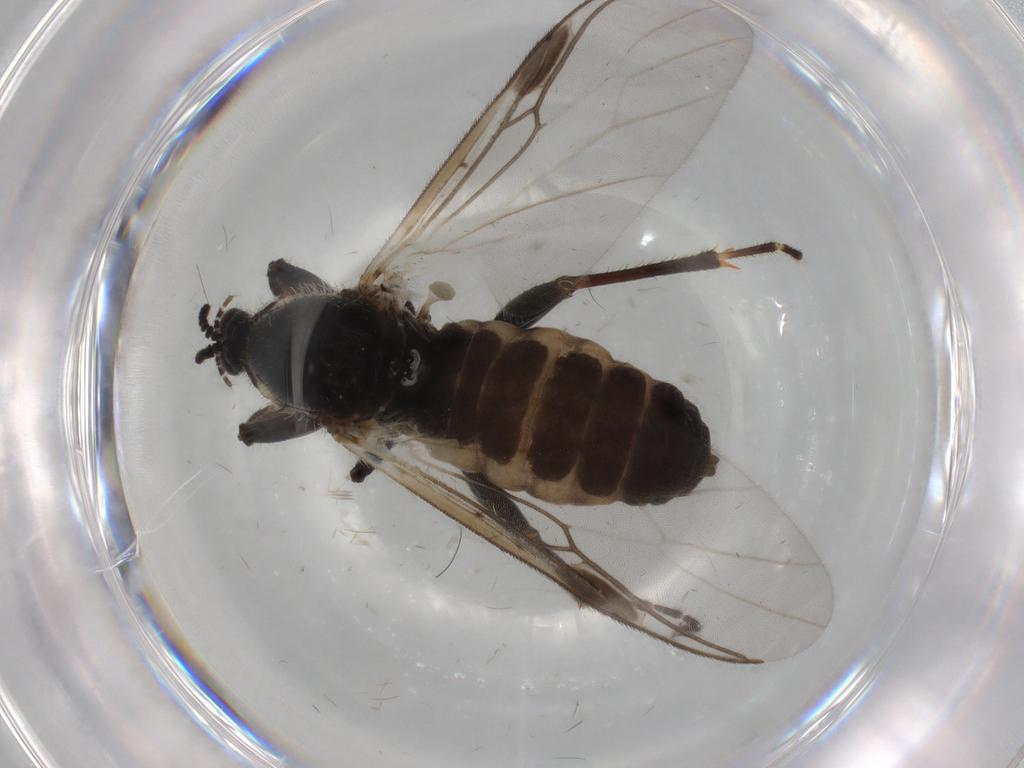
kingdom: Animalia
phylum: Arthropoda
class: Insecta
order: Diptera
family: Bibionidae
